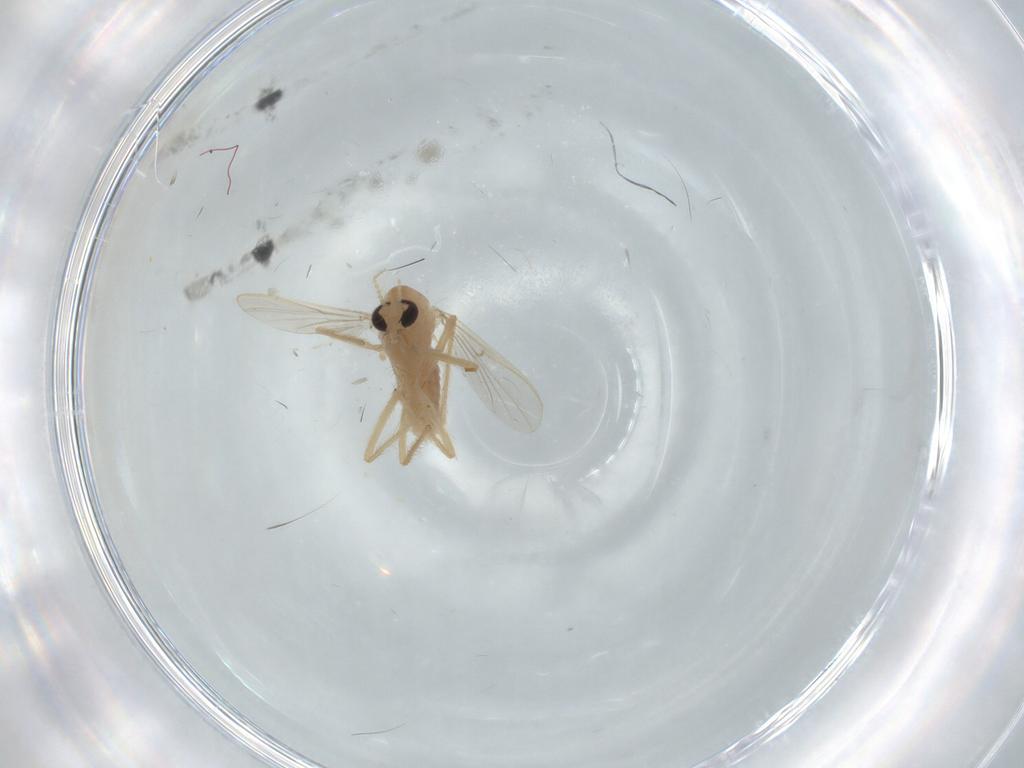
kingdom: Animalia
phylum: Arthropoda
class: Insecta
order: Diptera
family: Chironomidae
